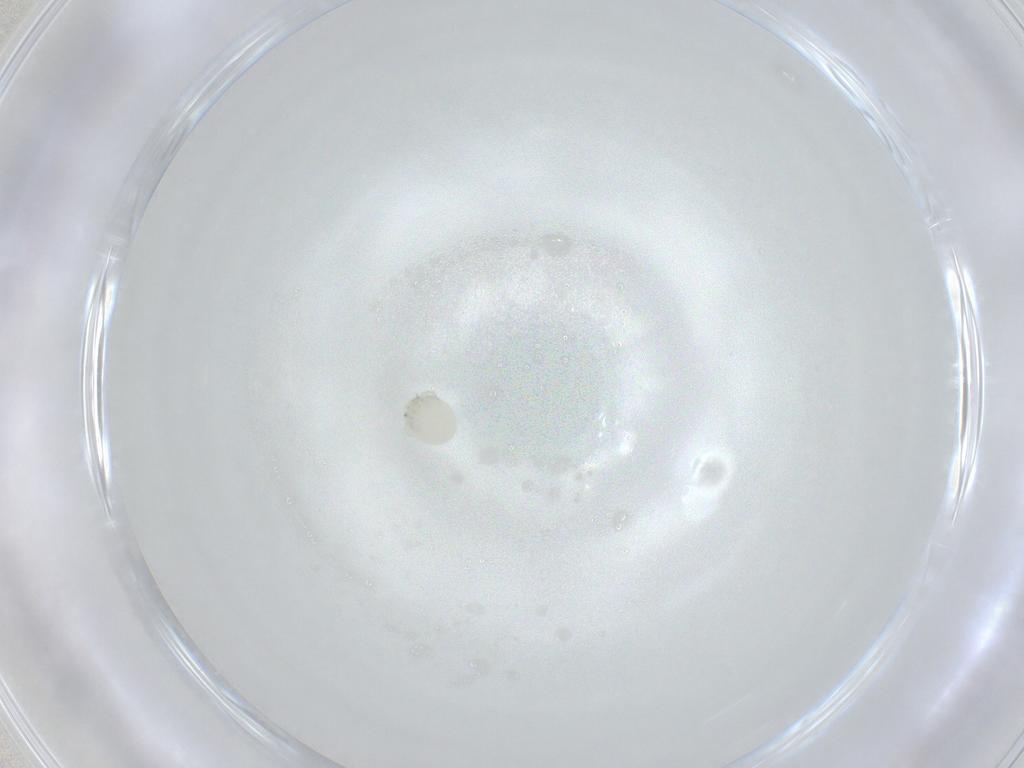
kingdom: Animalia
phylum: Arthropoda
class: Arachnida
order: Trombidiformes
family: Arrenuridae
